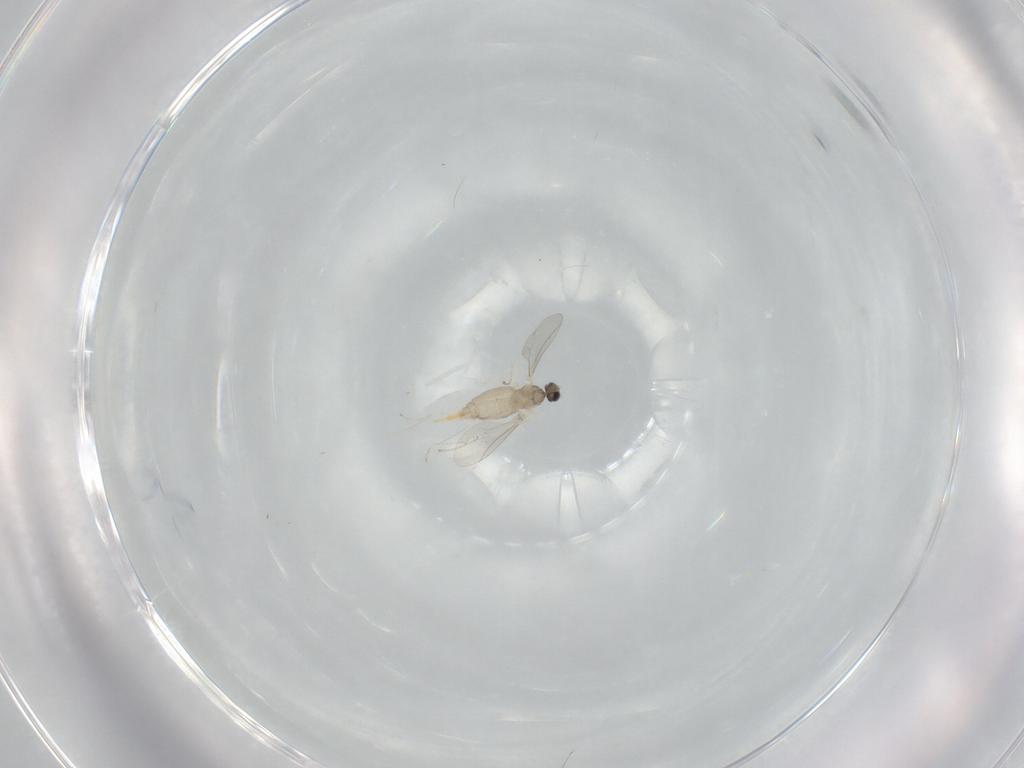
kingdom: Animalia
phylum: Arthropoda
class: Insecta
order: Diptera
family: Cecidomyiidae
